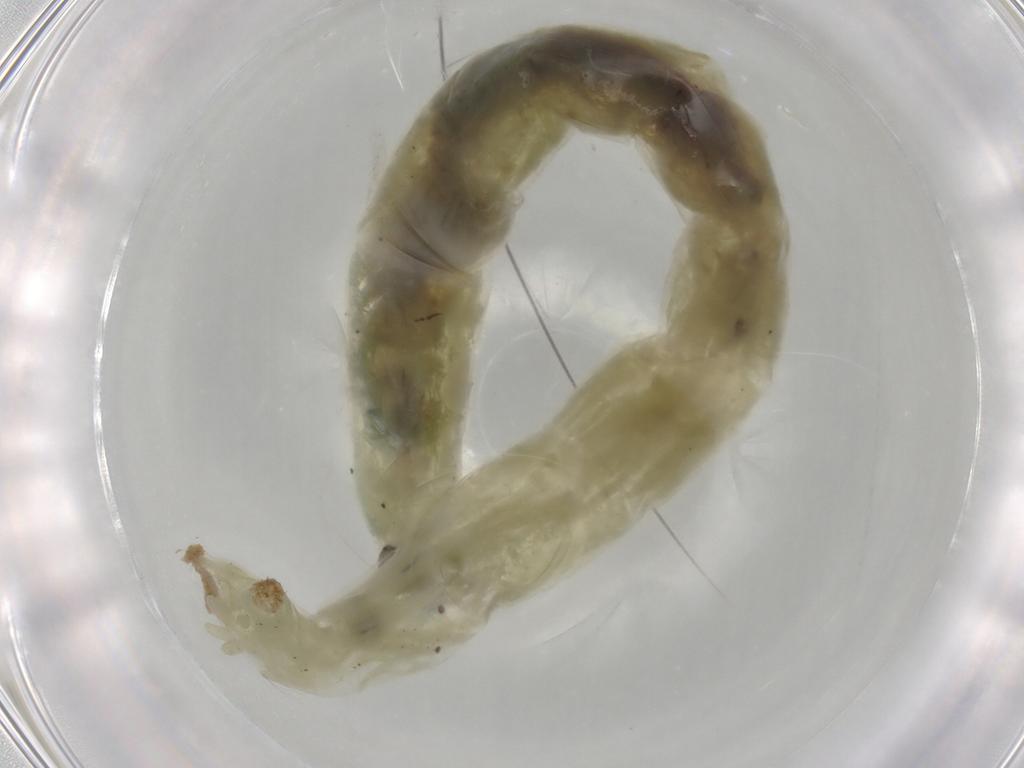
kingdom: Animalia
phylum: Arthropoda
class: Insecta
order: Diptera
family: Chironomidae
